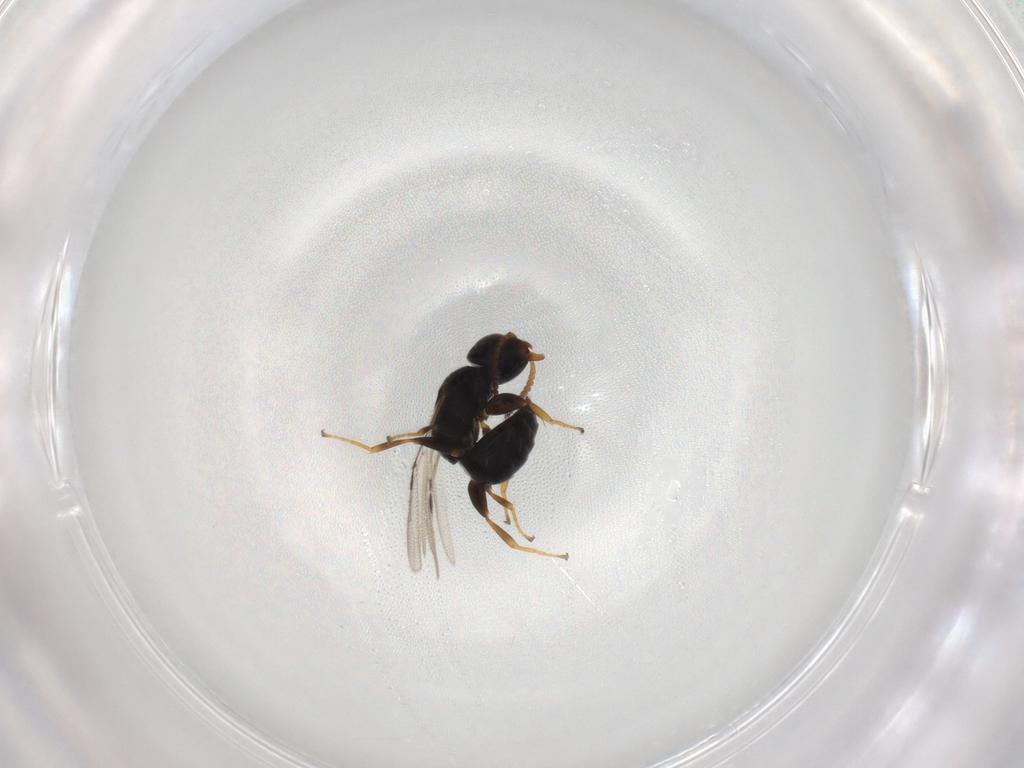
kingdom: Animalia
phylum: Arthropoda
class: Insecta
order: Hymenoptera
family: Bethylidae
